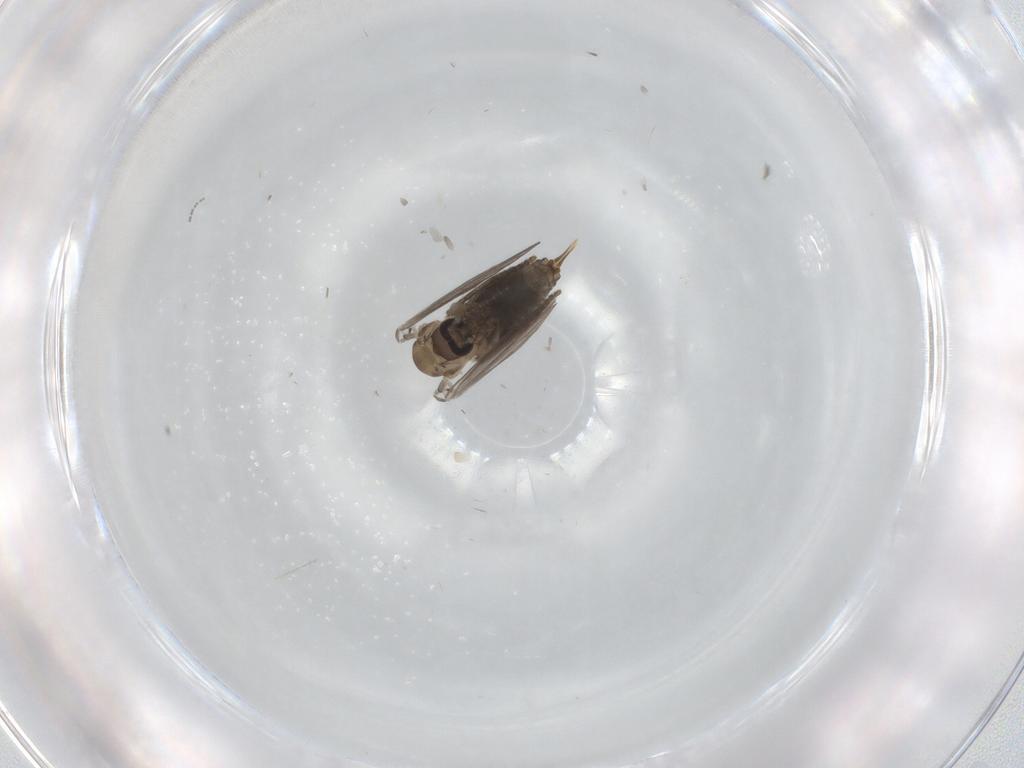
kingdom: Animalia
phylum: Arthropoda
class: Insecta
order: Diptera
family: Psychodidae
